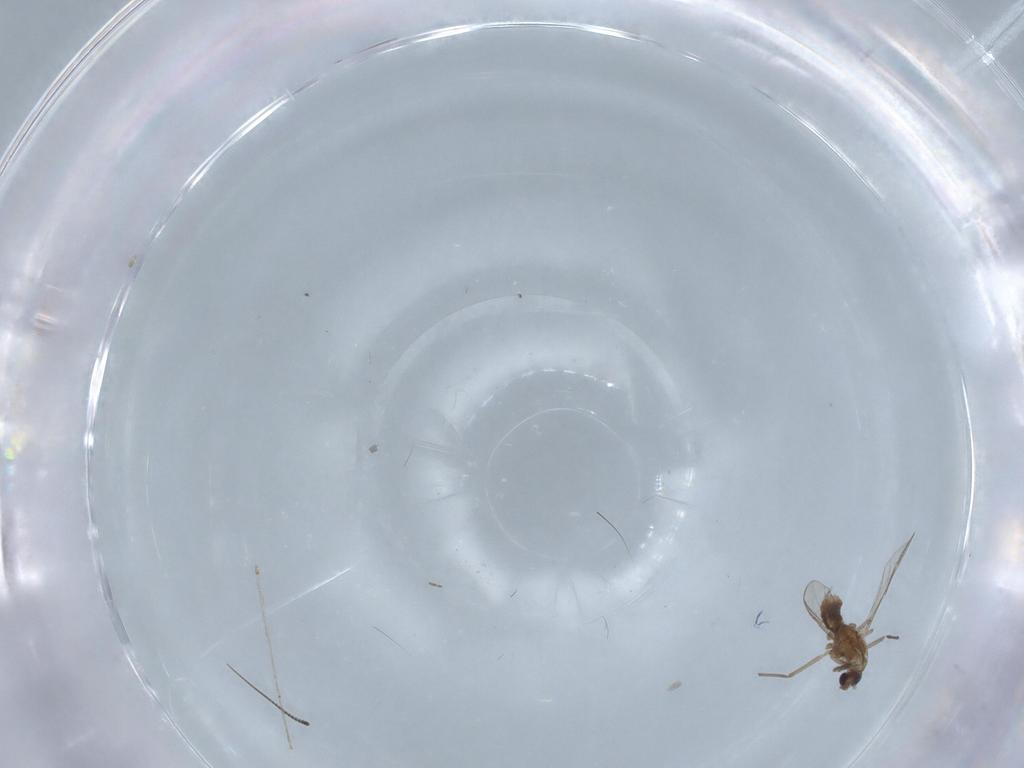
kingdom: Animalia
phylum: Arthropoda
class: Insecta
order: Diptera
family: Chironomidae
